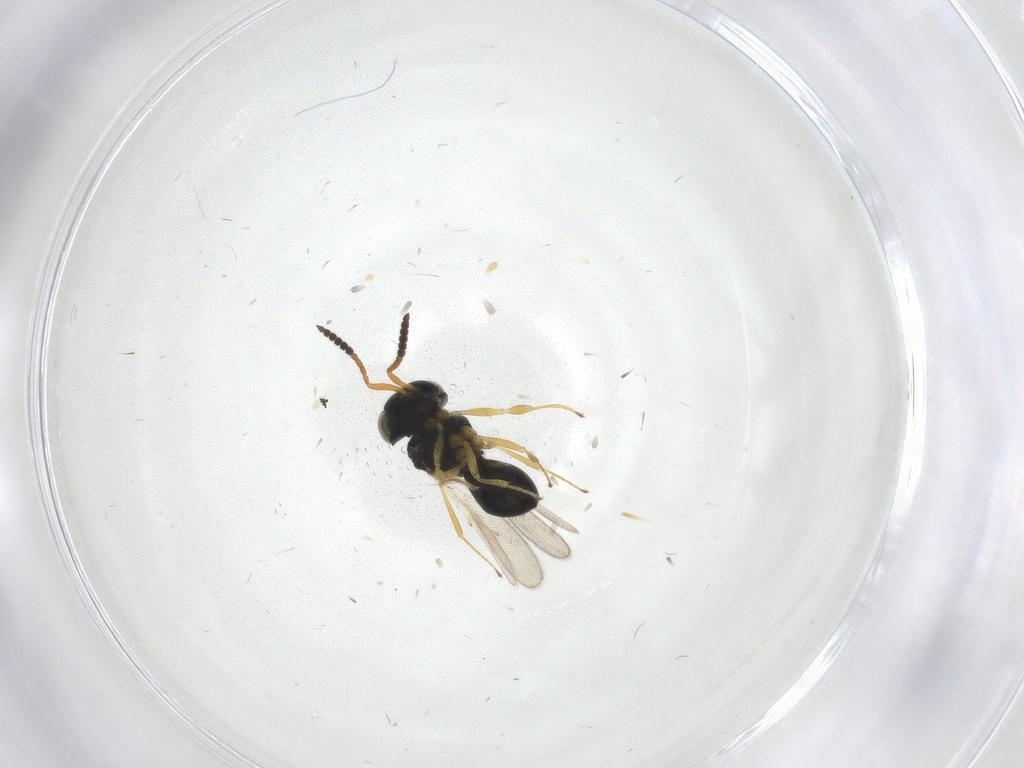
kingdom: Animalia
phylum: Arthropoda
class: Insecta
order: Hymenoptera
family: Scelionidae
